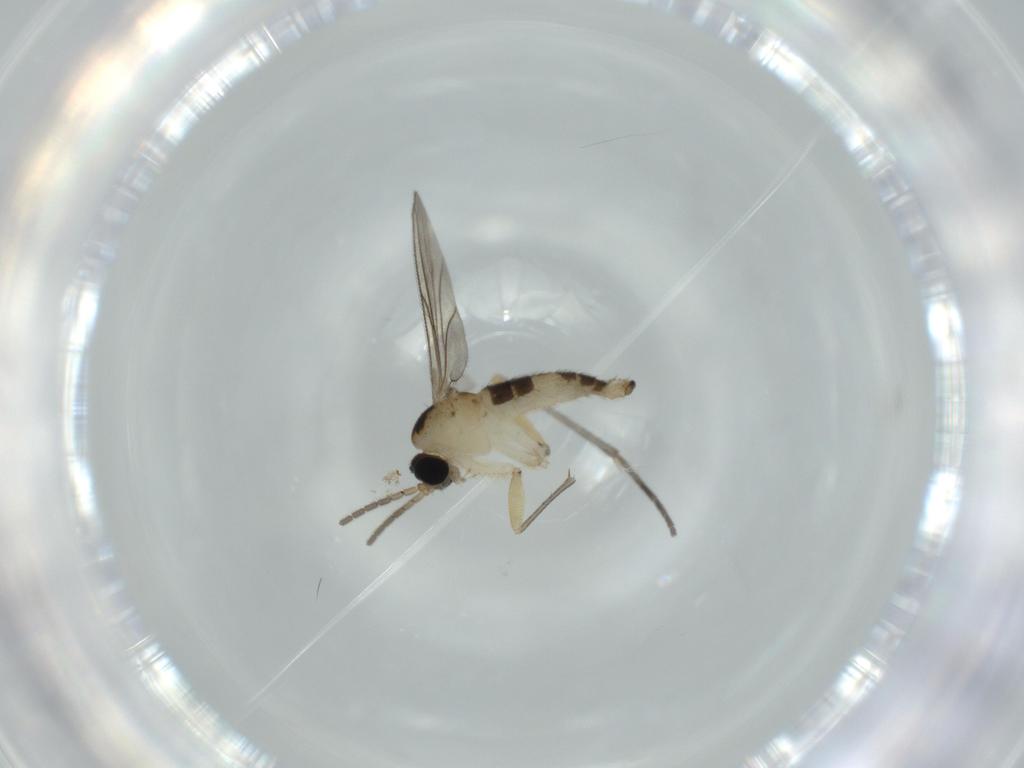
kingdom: Animalia
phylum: Arthropoda
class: Insecta
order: Diptera
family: Sciaridae
